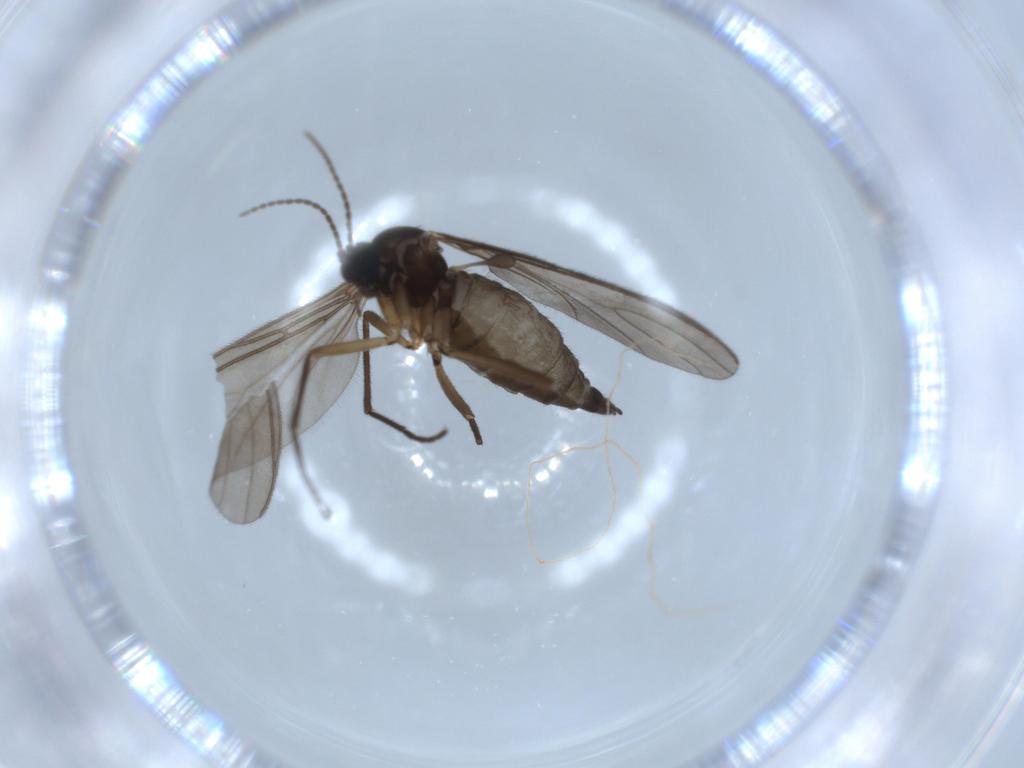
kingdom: Animalia
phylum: Arthropoda
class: Insecta
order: Diptera
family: Sciaridae
